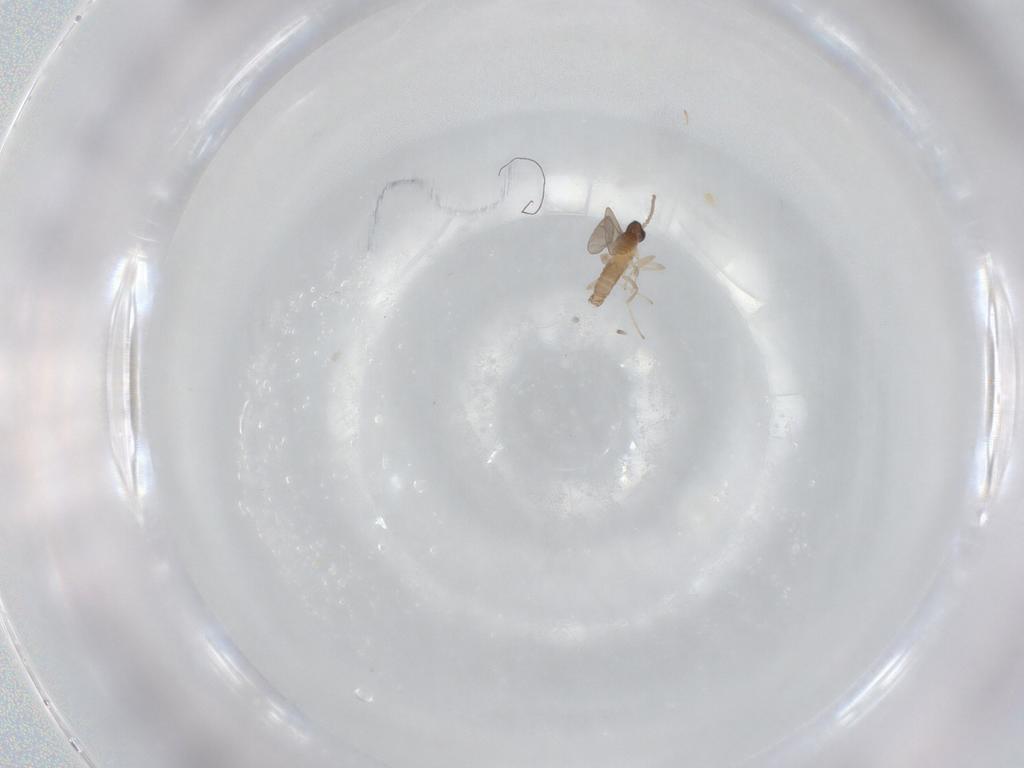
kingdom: Animalia
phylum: Arthropoda
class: Insecta
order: Diptera
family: Cecidomyiidae
